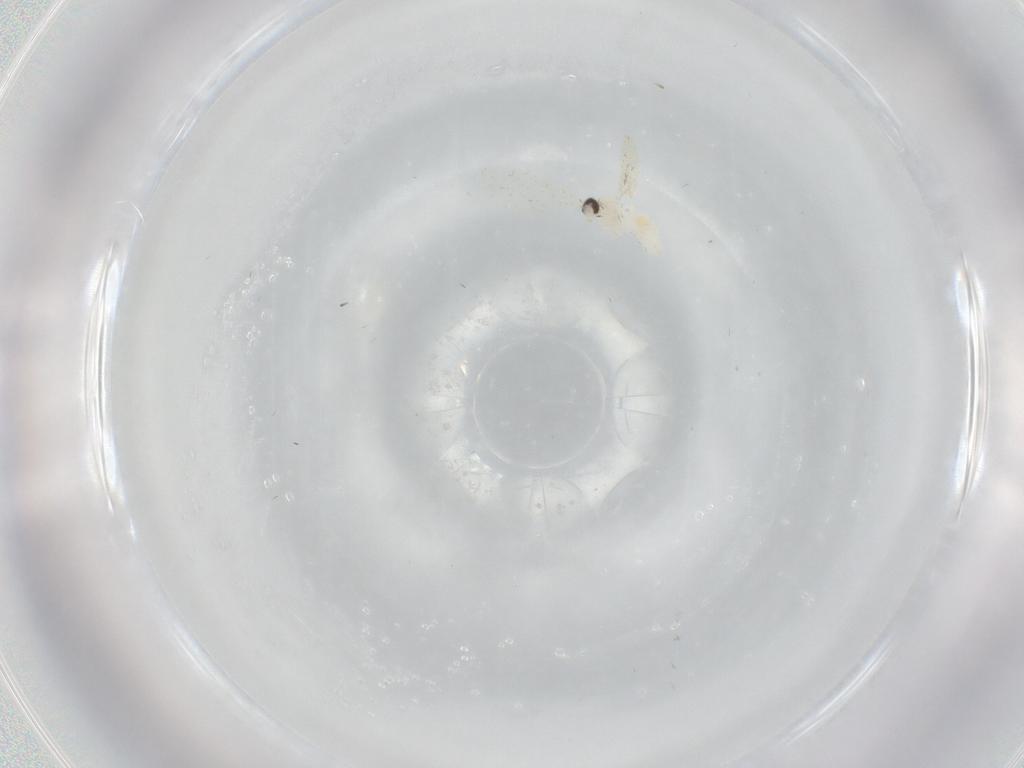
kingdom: Animalia
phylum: Arthropoda
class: Insecta
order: Diptera
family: Cecidomyiidae
